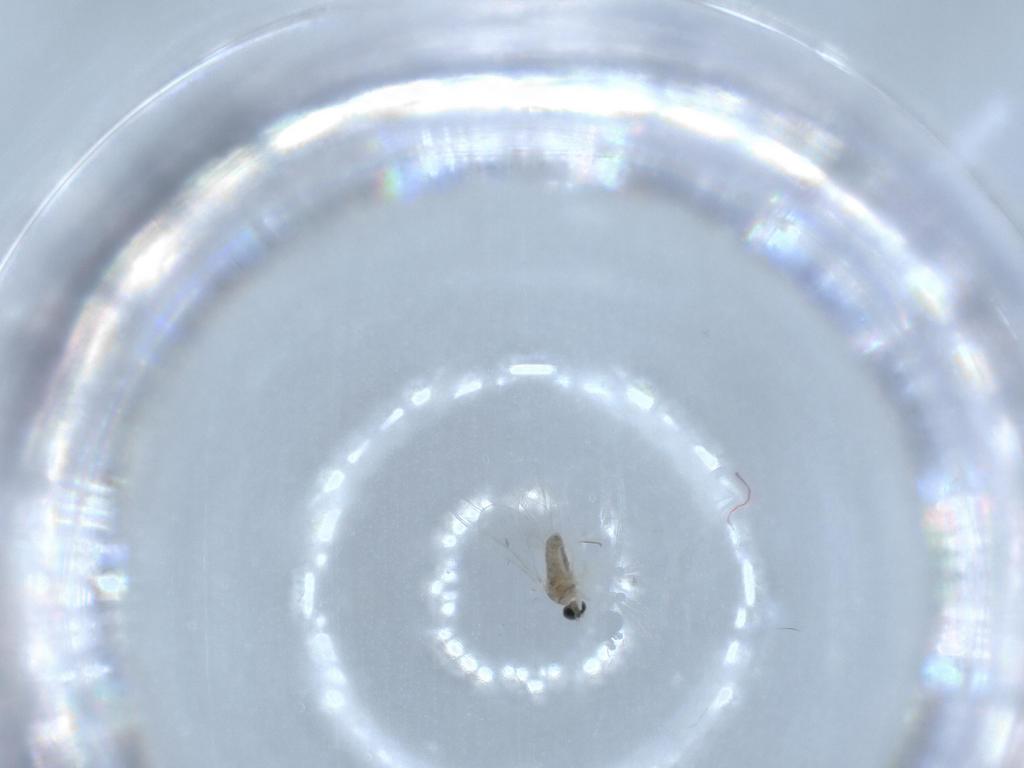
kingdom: Animalia
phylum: Arthropoda
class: Insecta
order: Diptera
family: Cecidomyiidae
